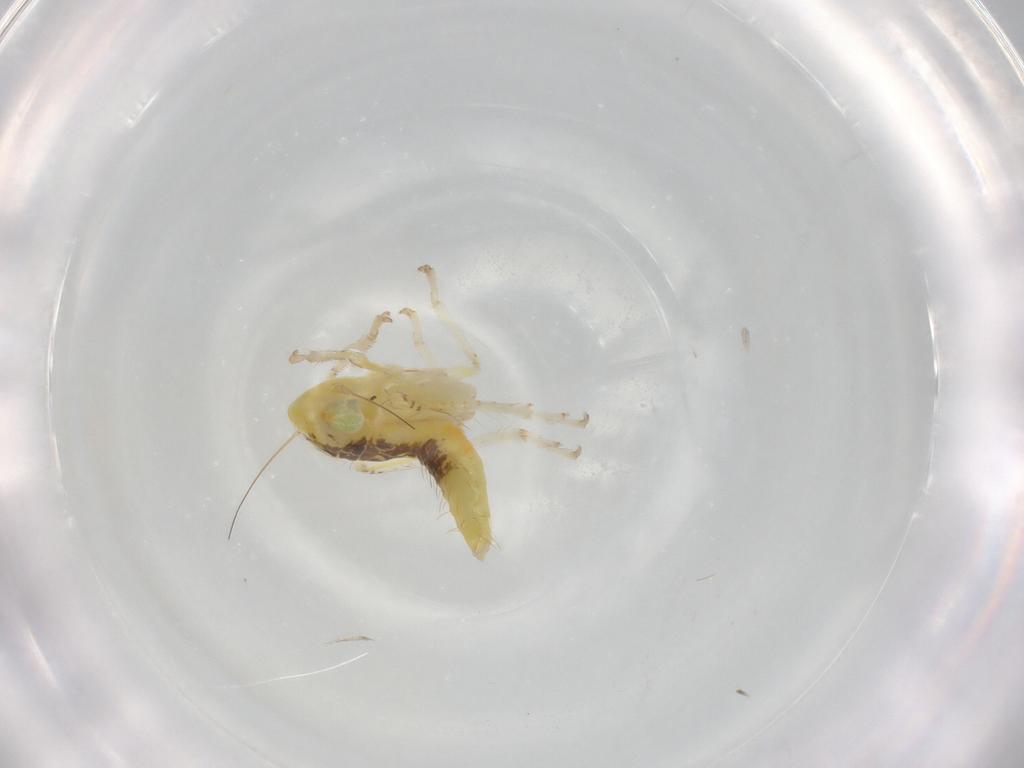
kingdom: Animalia
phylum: Arthropoda
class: Insecta
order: Hemiptera
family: Cicadellidae
